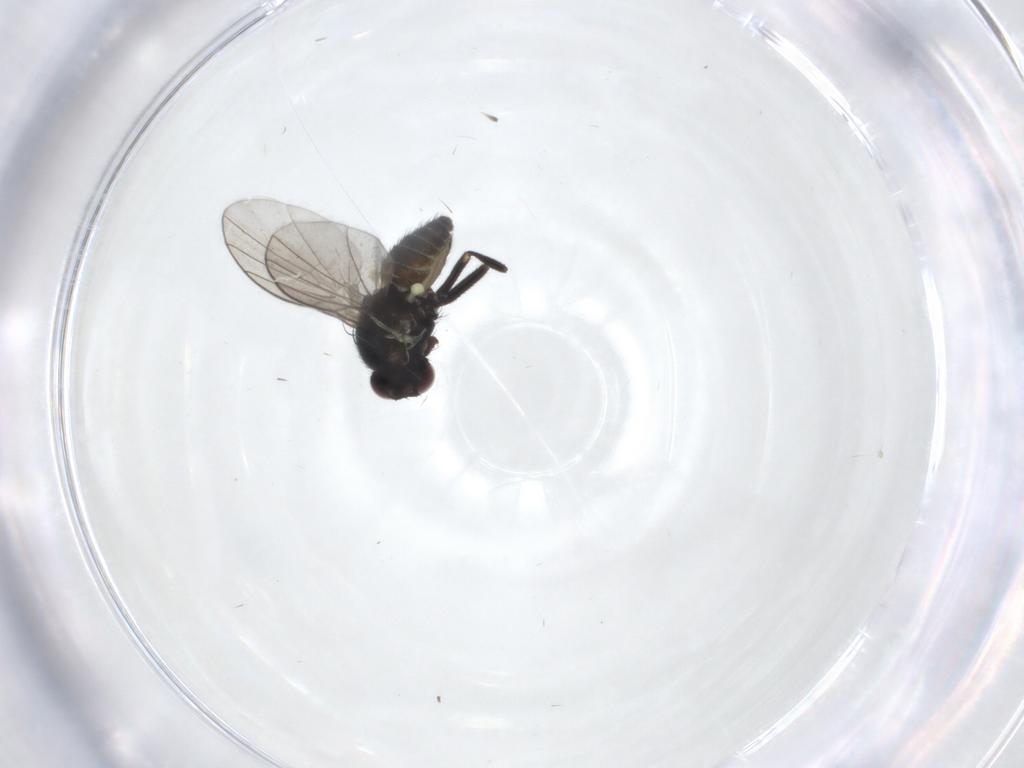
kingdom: Animalia
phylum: Arthropoda
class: Insecta
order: Diptera
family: Agromyzidae
